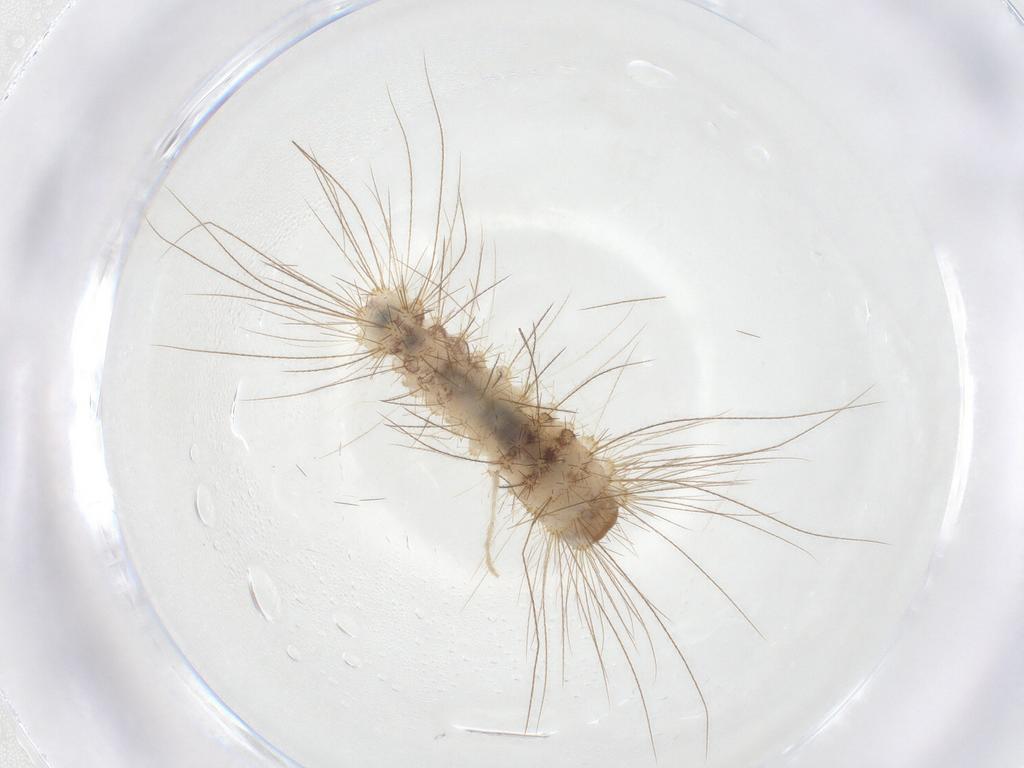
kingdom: Animalia
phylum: Arthropoda
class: Insecta
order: Lepidoptera
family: Erebidae
